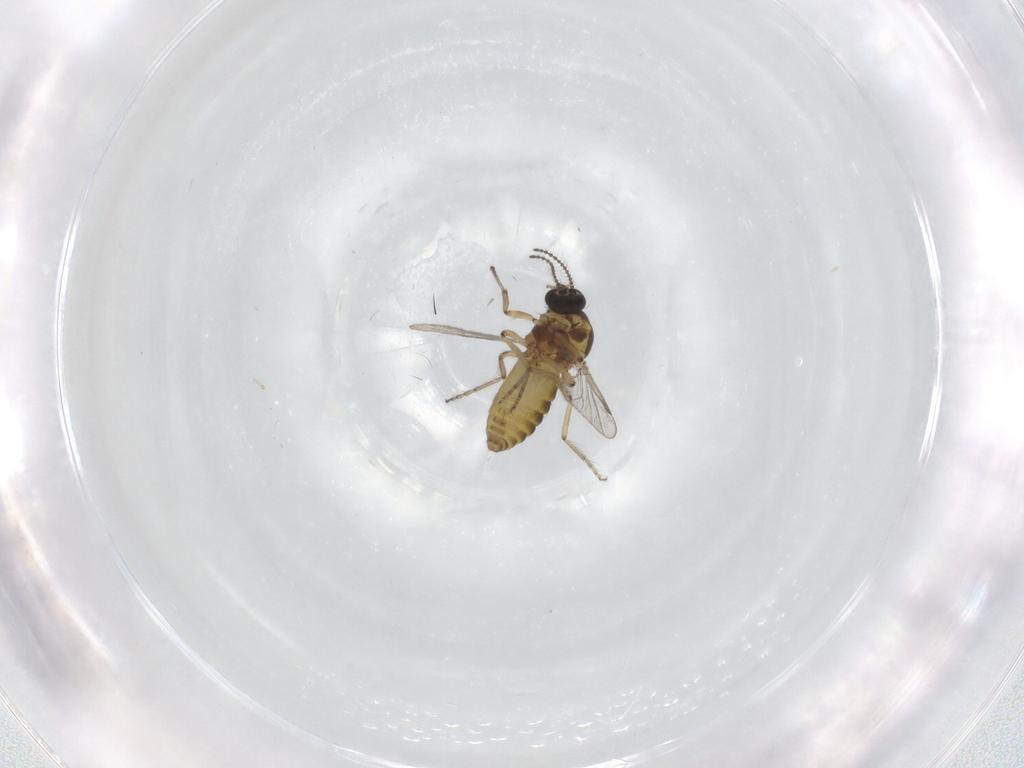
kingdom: Animalia
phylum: Arthropoda
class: Insecta
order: Diptera
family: Ceratopogonidae
